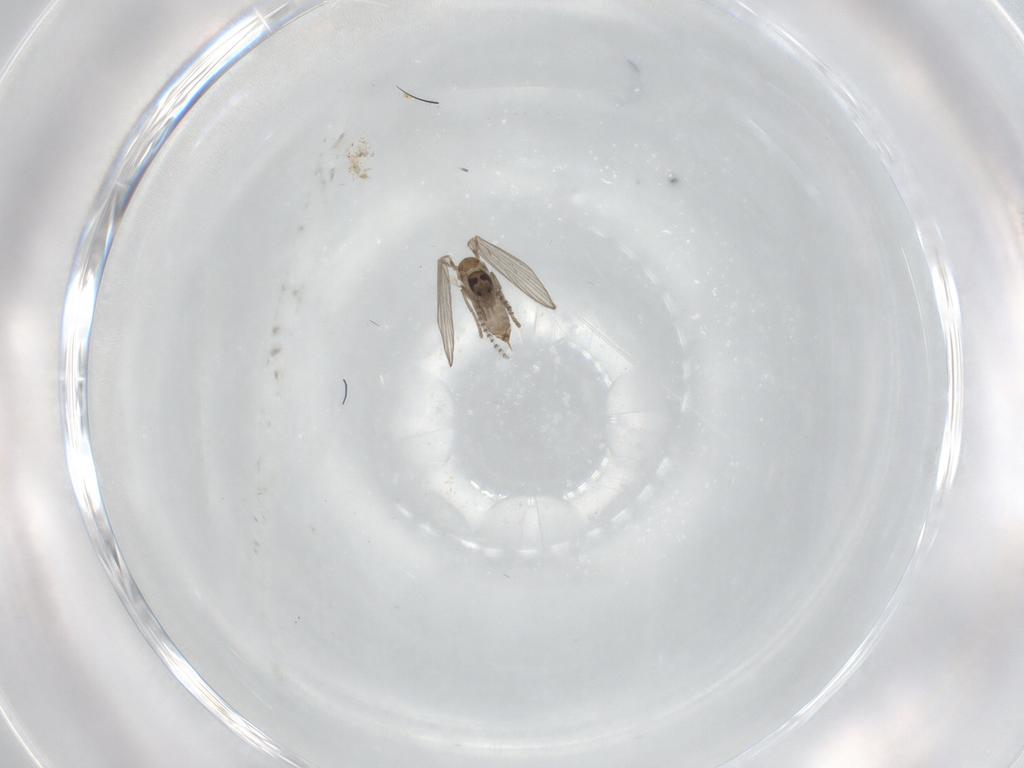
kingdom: Animalia
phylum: Arthropoda
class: Insecta
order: Diptera
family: Psychodidae
